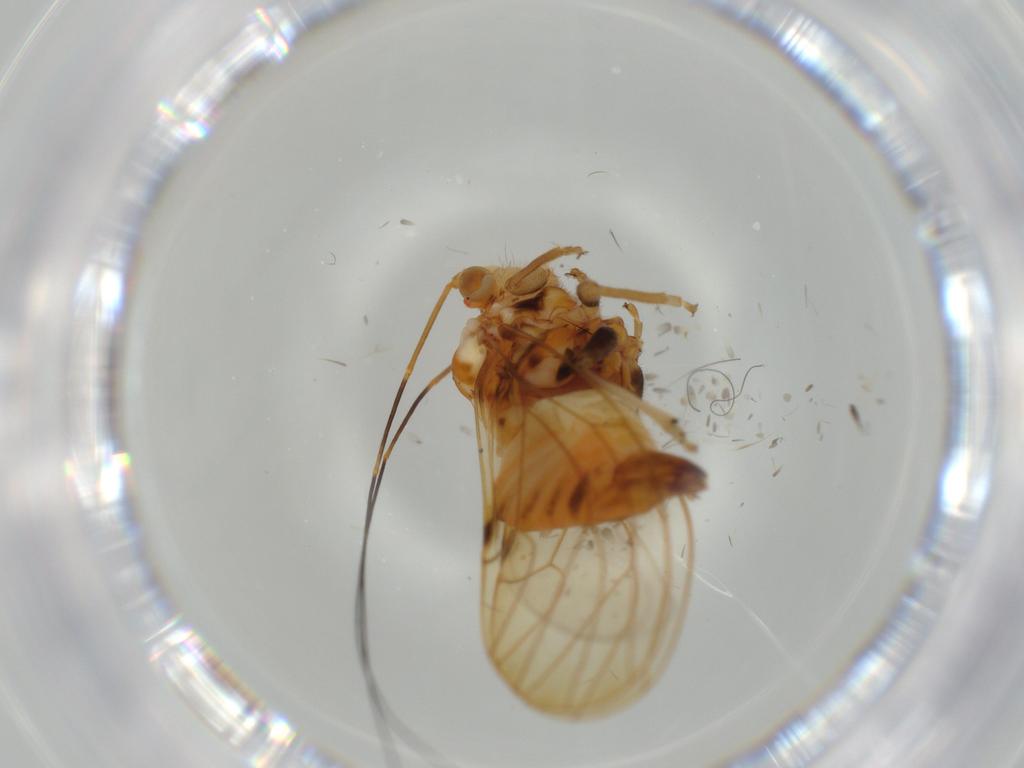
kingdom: Animalia
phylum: Arthropoda
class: Insecta
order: Hemiptera
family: Psyllidae
